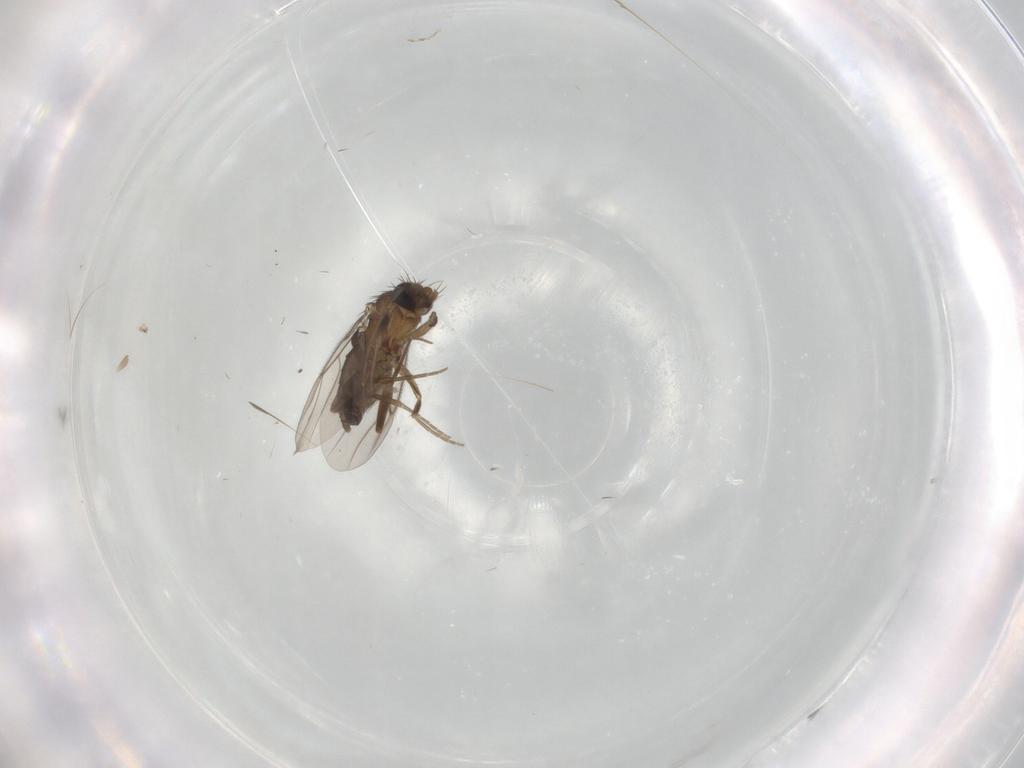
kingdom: Animalia
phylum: Arthropoda
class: Insecta
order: Diptera
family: Phoridae
